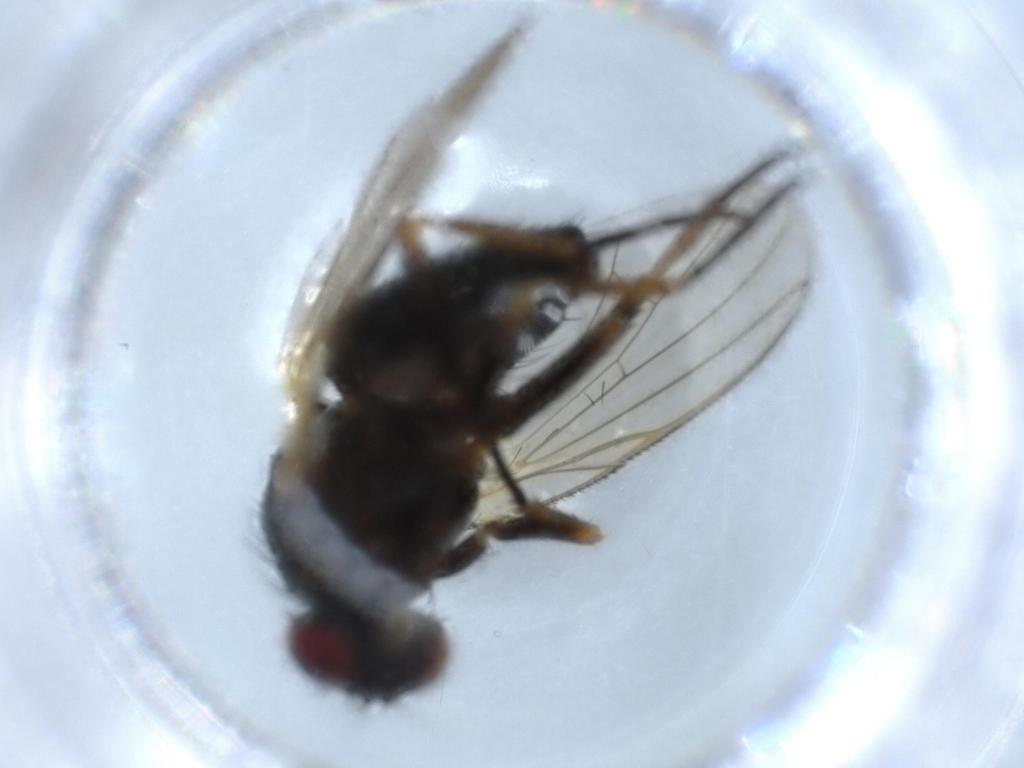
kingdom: Animalia
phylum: Arthropoda
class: Insecta
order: Diptera
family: Limoniidae
